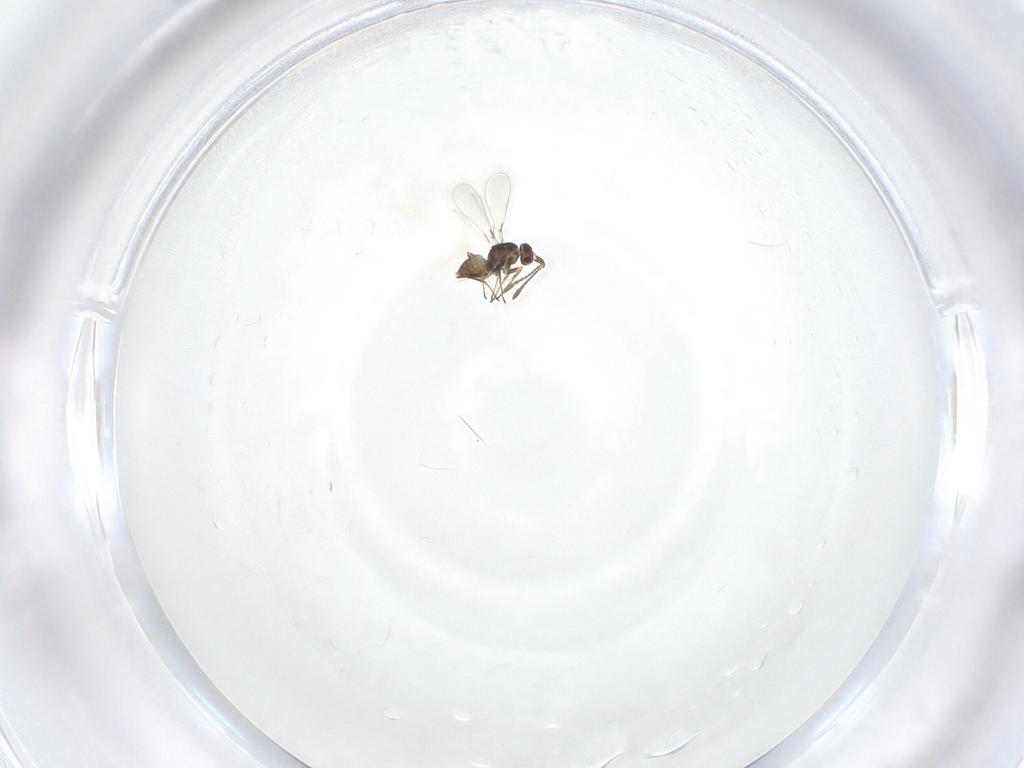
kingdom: Animalia
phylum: Arthropoda
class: Insecta
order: Hymenoptera
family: Mymaridae
